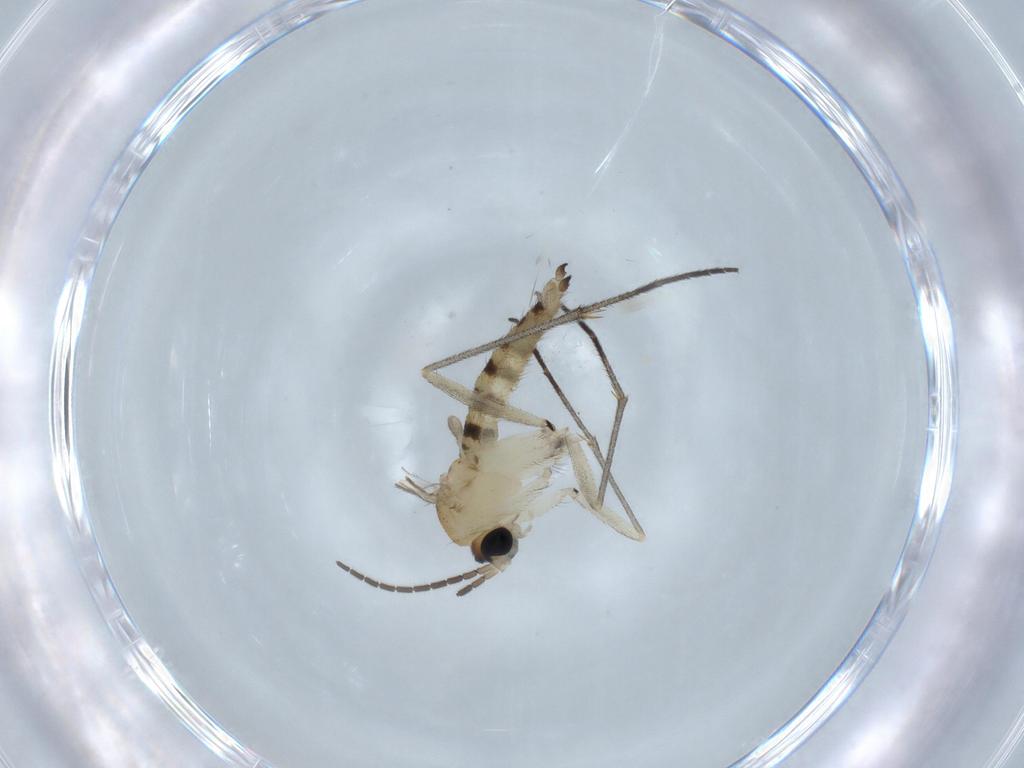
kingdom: Animalia
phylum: Arthropoda
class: Insecta
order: Diptera
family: Sciaridae
